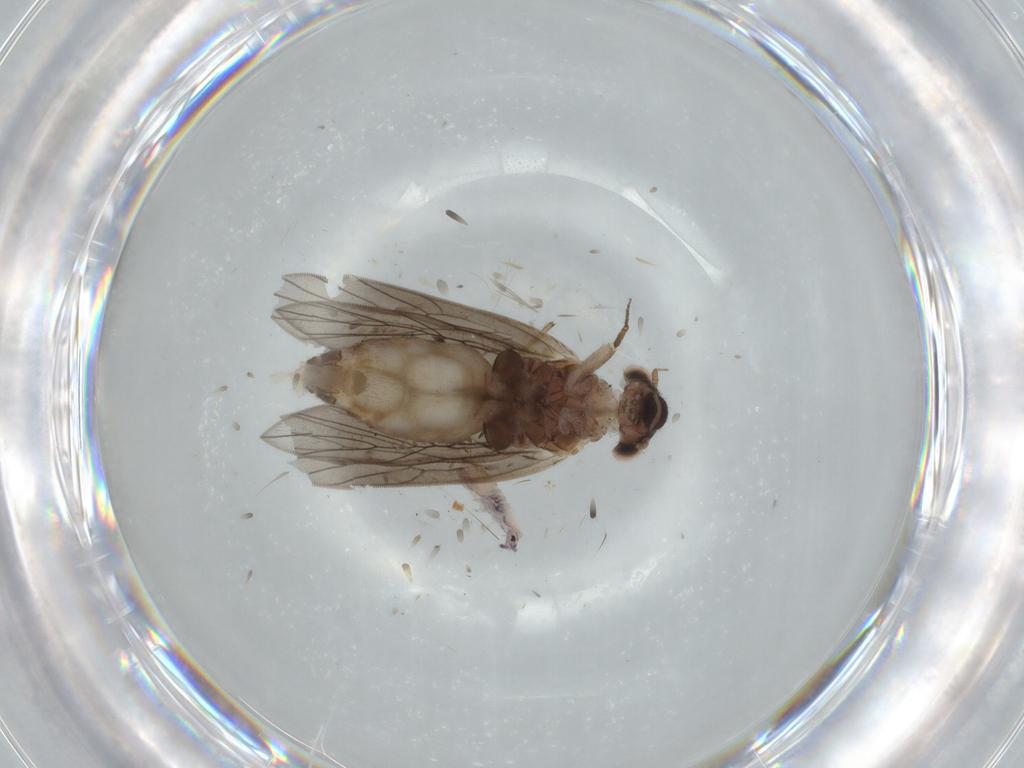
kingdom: Animalia
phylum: Arthropoda
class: Insecta
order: Psocodea
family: Lepidopsocidae
